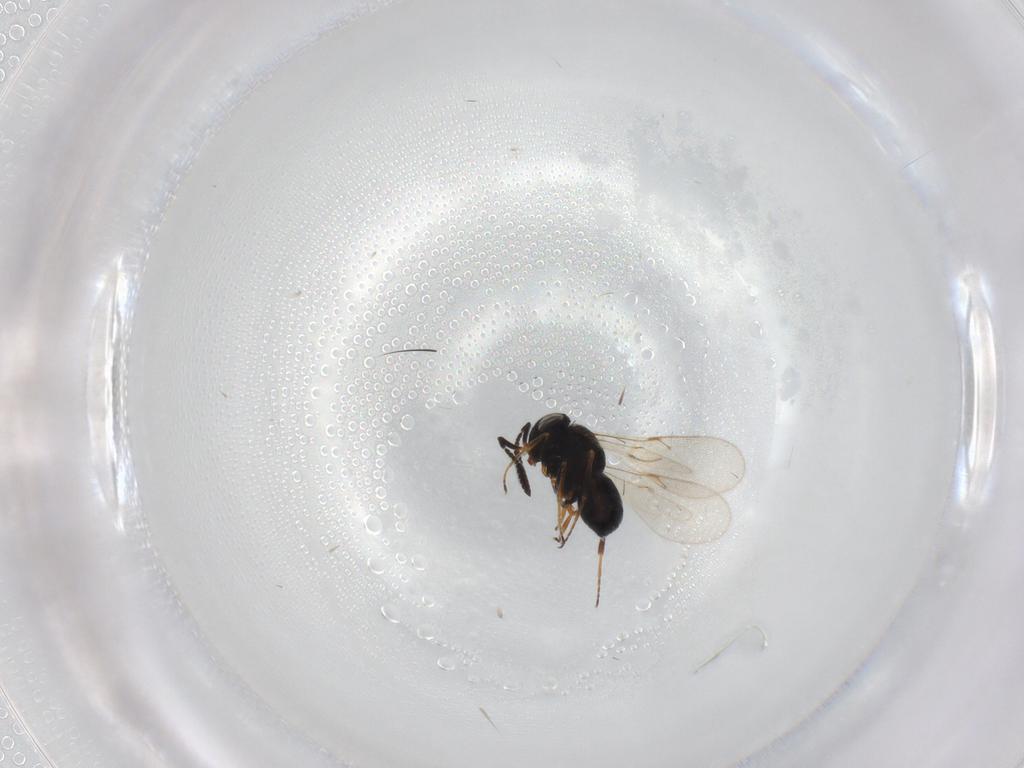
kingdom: Animalia
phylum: Arthropoda
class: Insecta
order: Hymenoptera
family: Scelionidae
